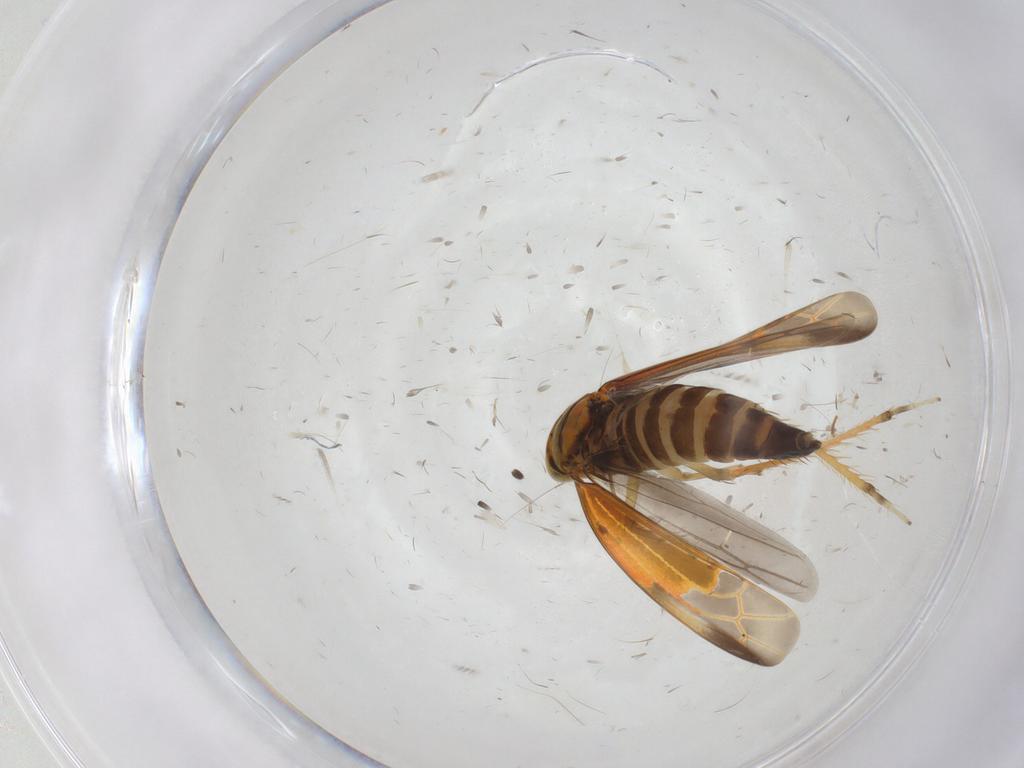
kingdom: Animalia
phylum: Arthropoda
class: Insecta
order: Hemiptera
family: Cicadellidae
